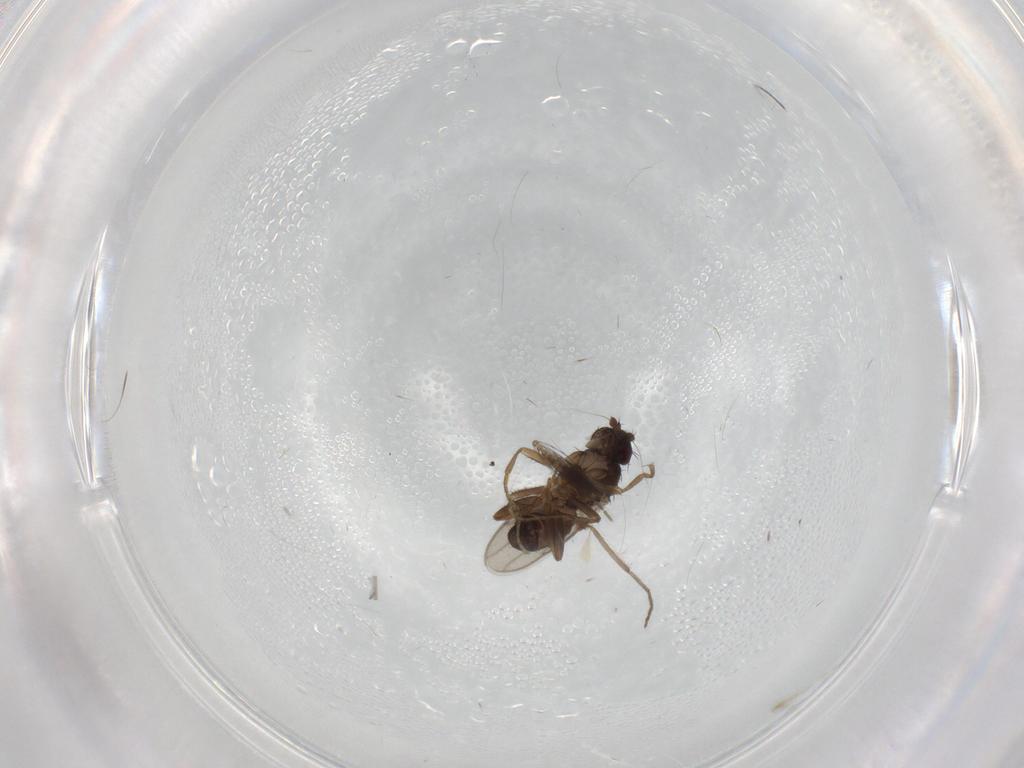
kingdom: Animalia
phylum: Arthropoda
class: Insecta
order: Diptera
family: Sphaeroceridae
